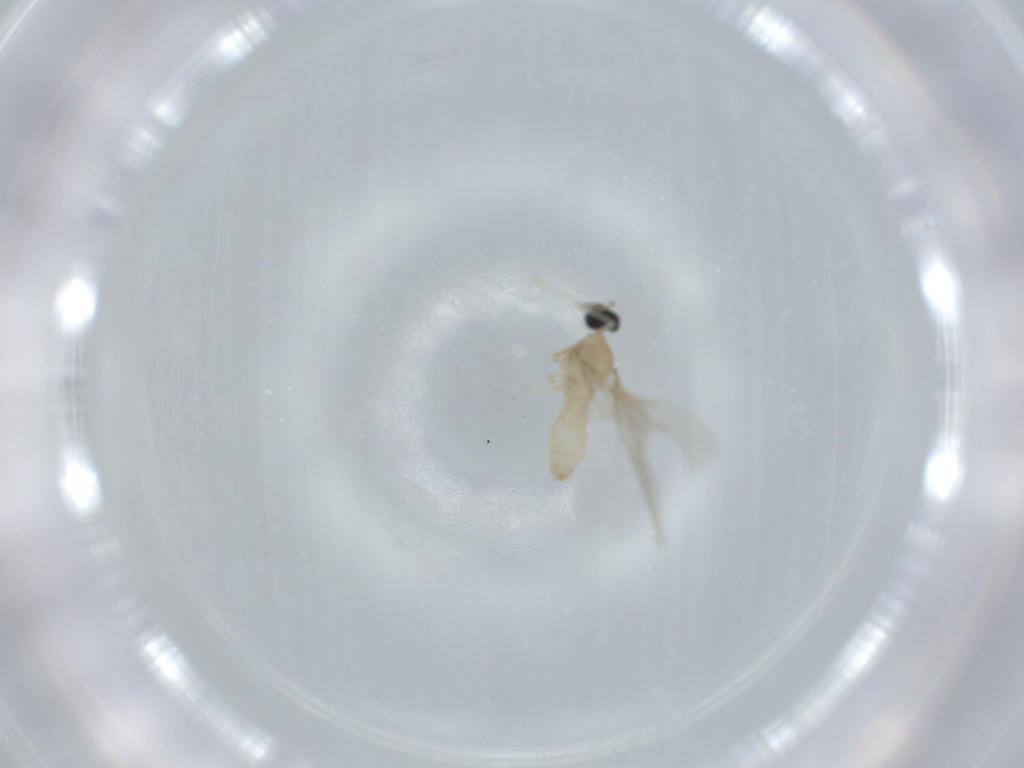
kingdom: Animalia
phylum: Arthropoda
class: Insecta
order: Diptera
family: Cecidomyiidae
